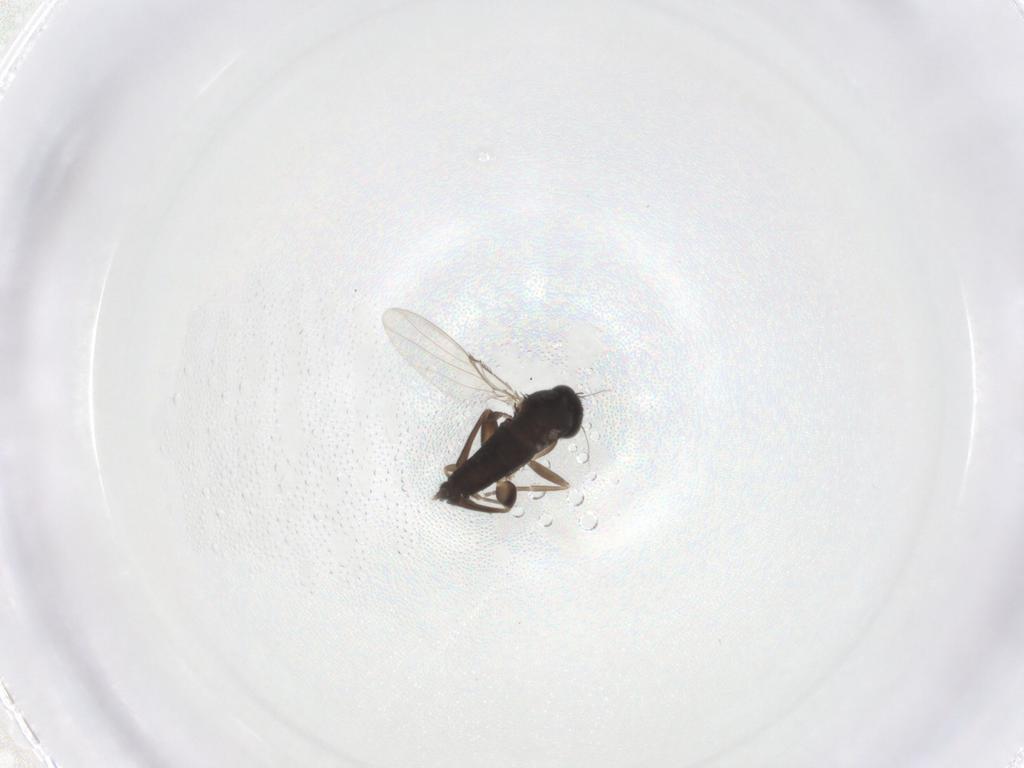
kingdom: Animalia
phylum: Arthropoda
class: Insecta
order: Diptera
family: Phoridae
